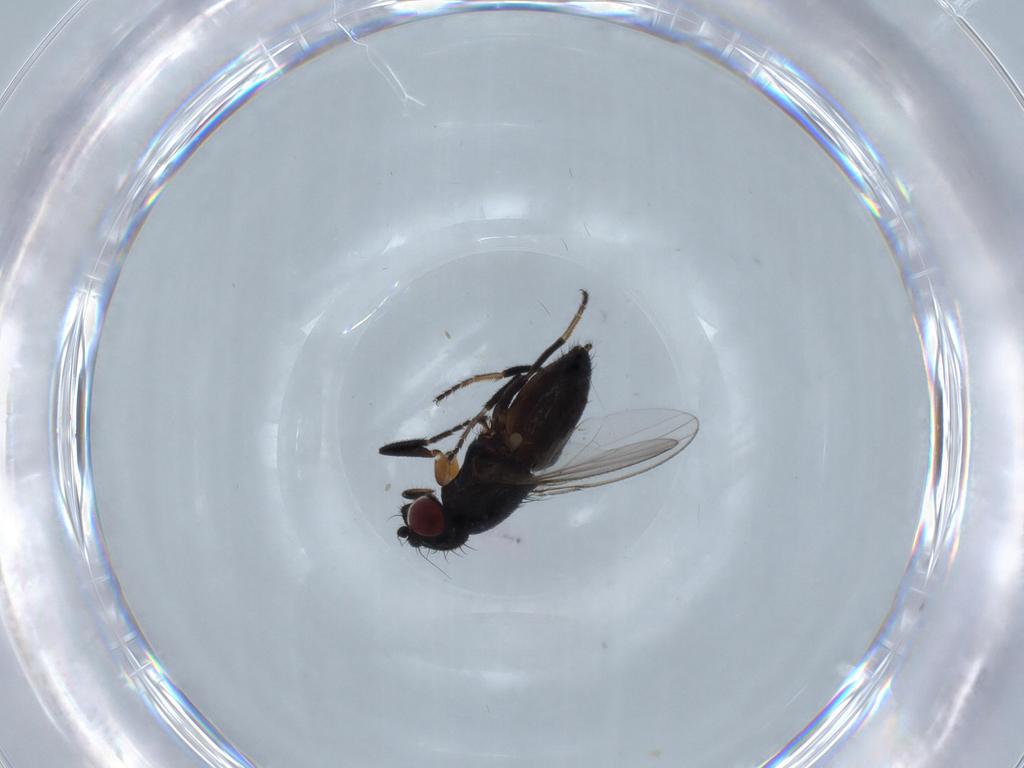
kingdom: Animalia
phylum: Arthropoda
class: Insecta
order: Diptera
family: Milichiidae
